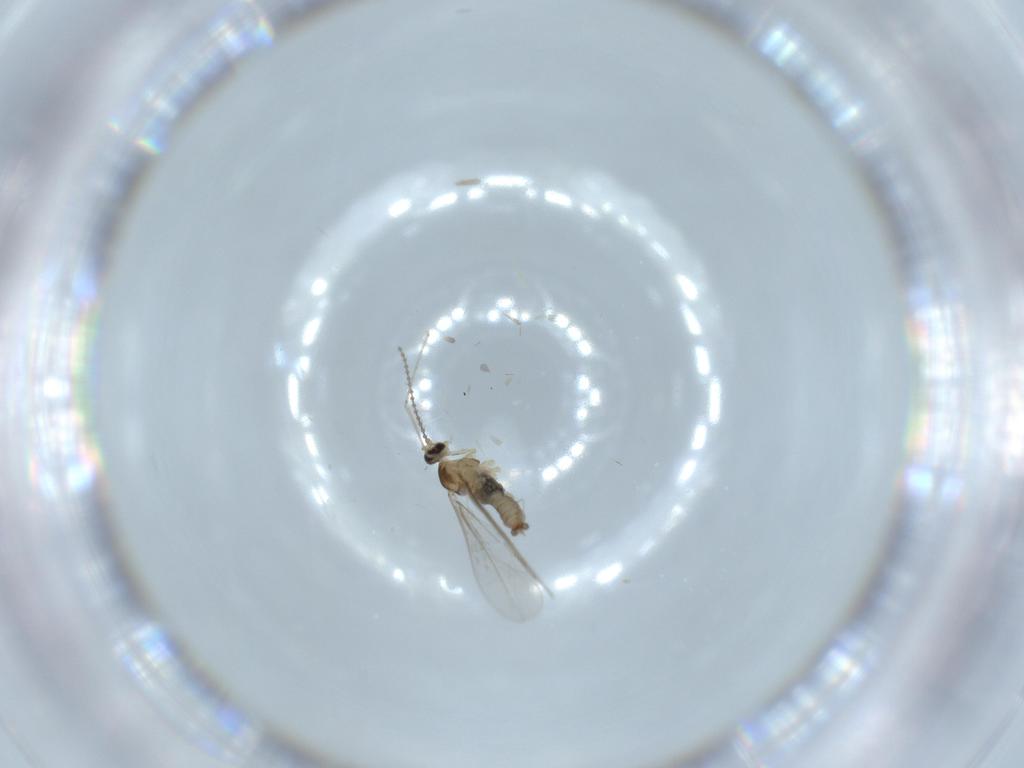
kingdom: Animalia
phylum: Arthropoda
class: Insecta
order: Diptera
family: Cecidomyiidae
